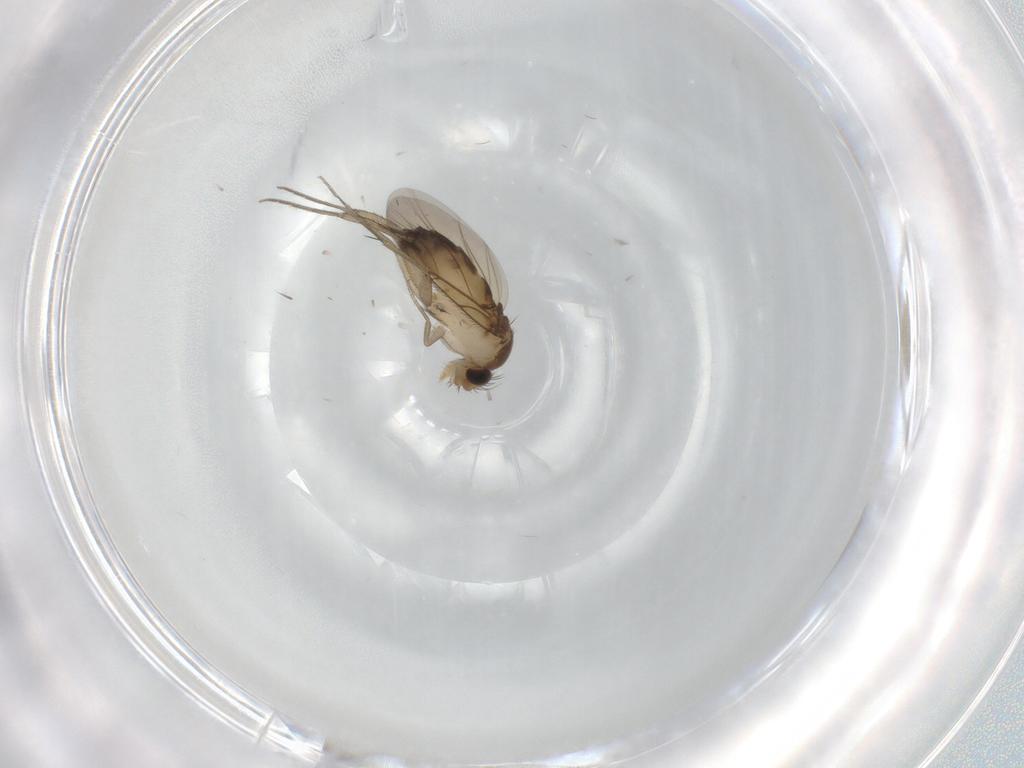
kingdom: Animalia
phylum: Arthropoda
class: Insecta
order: Diptera
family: Phoridae
